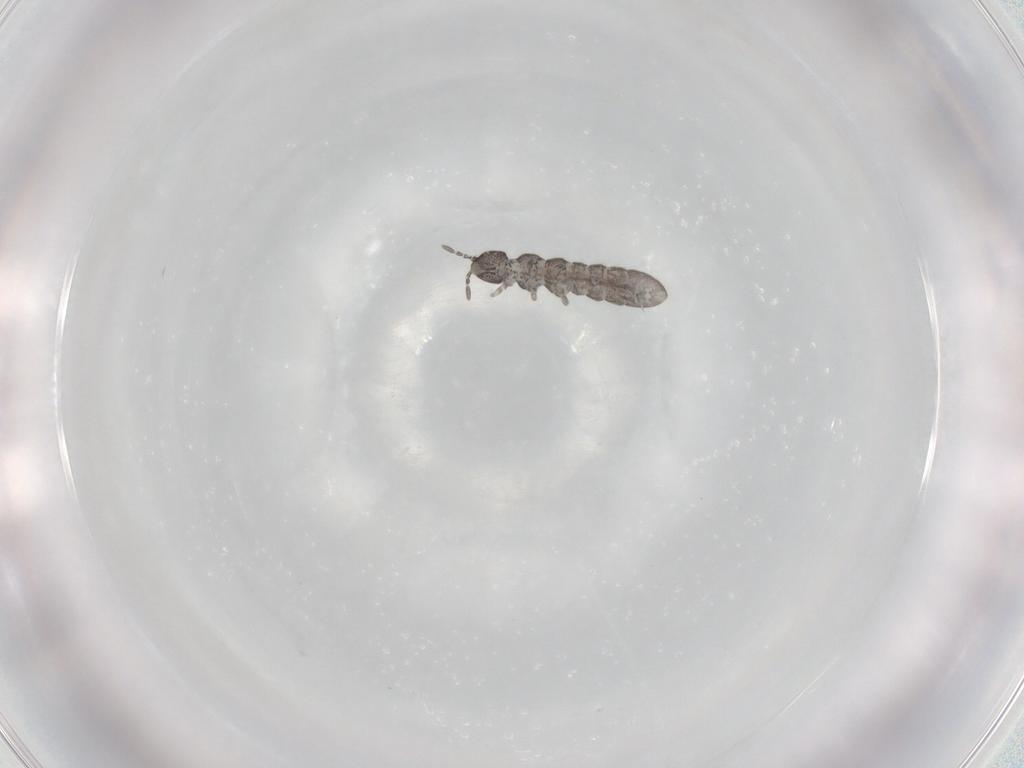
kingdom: Animalia
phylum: Arthropoda
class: Collembola
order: Entomobryomorpha
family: Isotomidae
